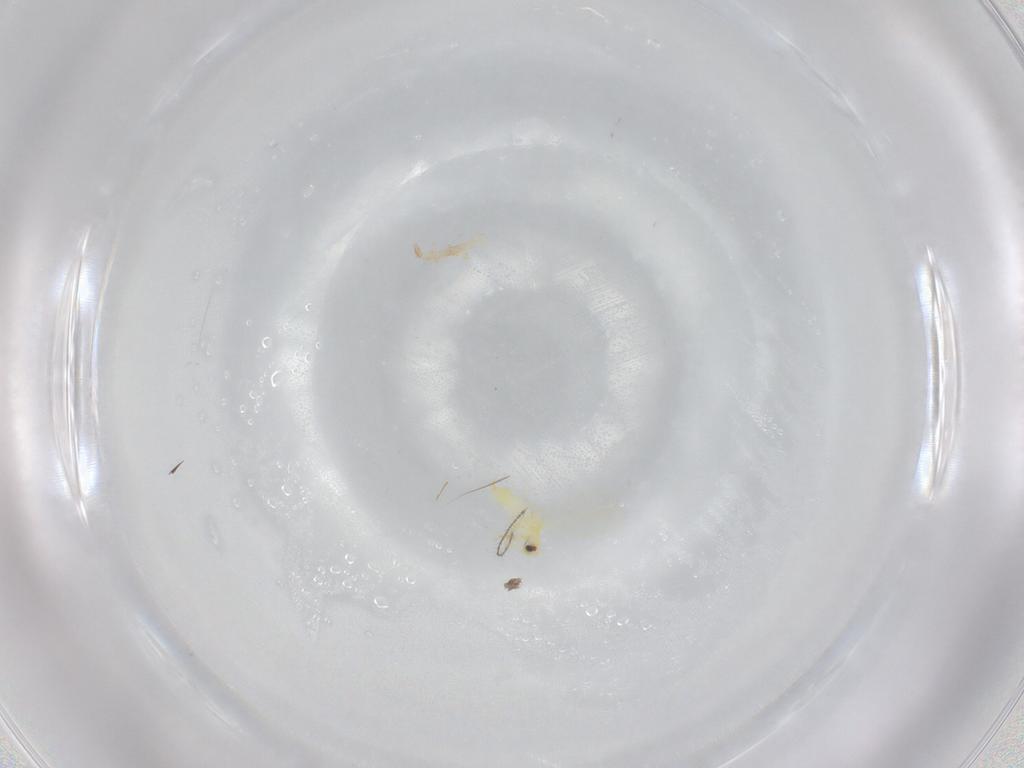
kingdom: Animalia
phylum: Arthropoda
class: Insecta
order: Hemiptera
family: Aleyrodidae
